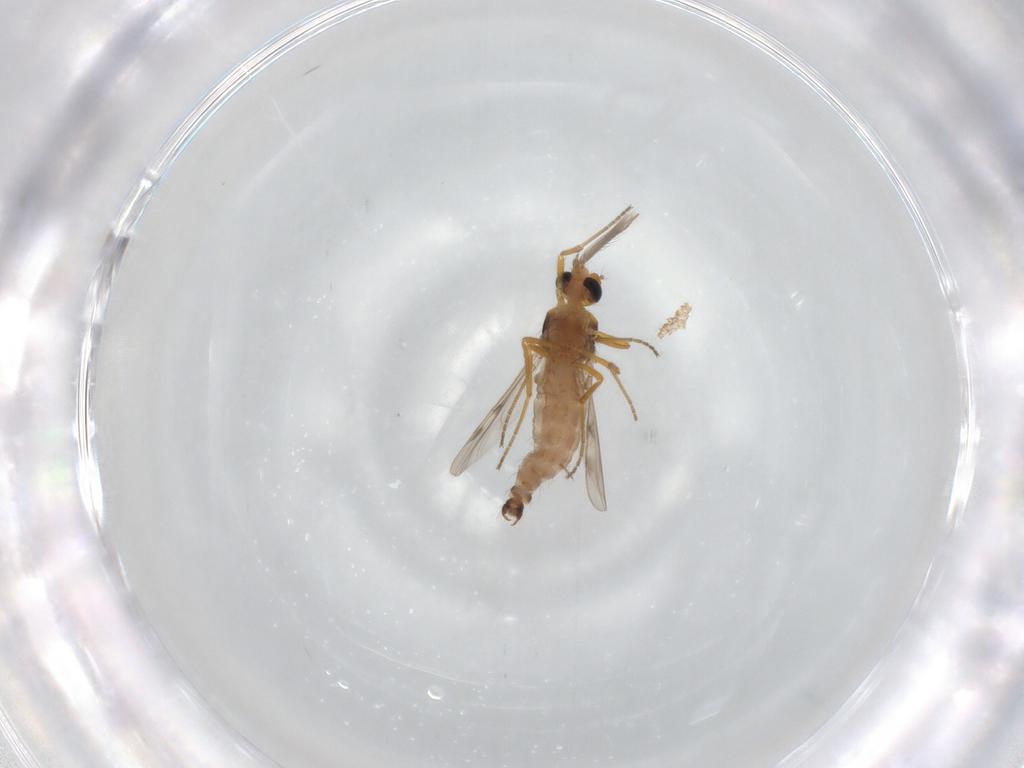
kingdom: Animalia
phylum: Arthropoda
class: Insecta
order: Diptera
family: Ceratopogonidae
